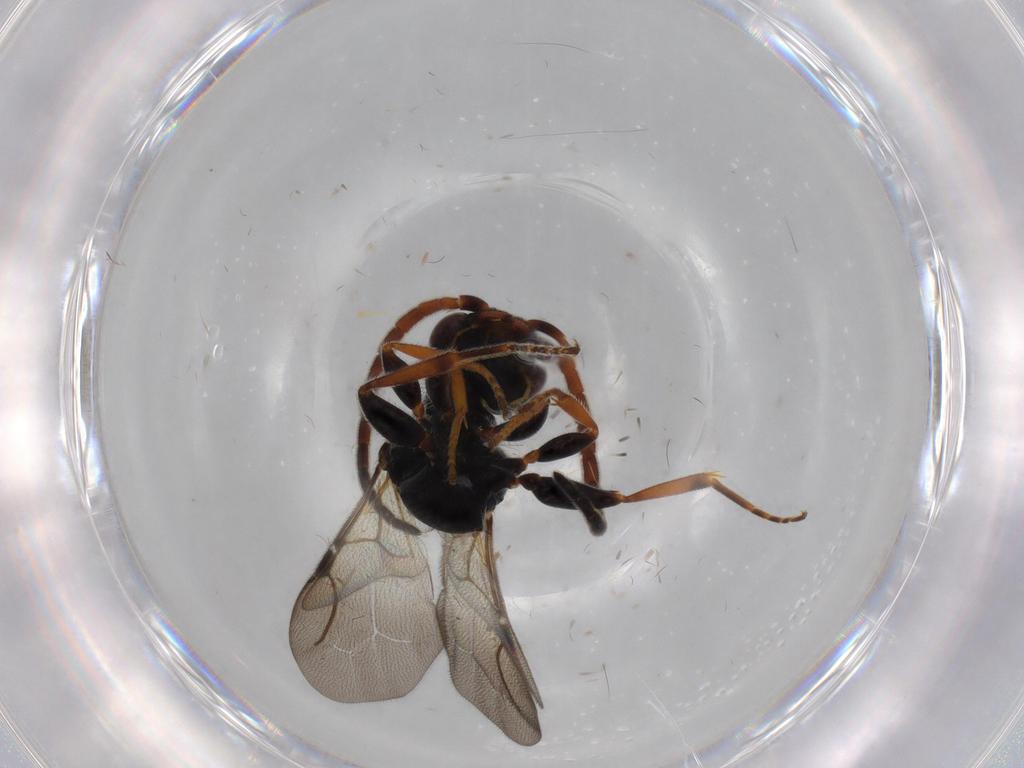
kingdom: Animalia
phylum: Arthropoda
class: Insecta
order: Hymenoptera
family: Bethylidae
